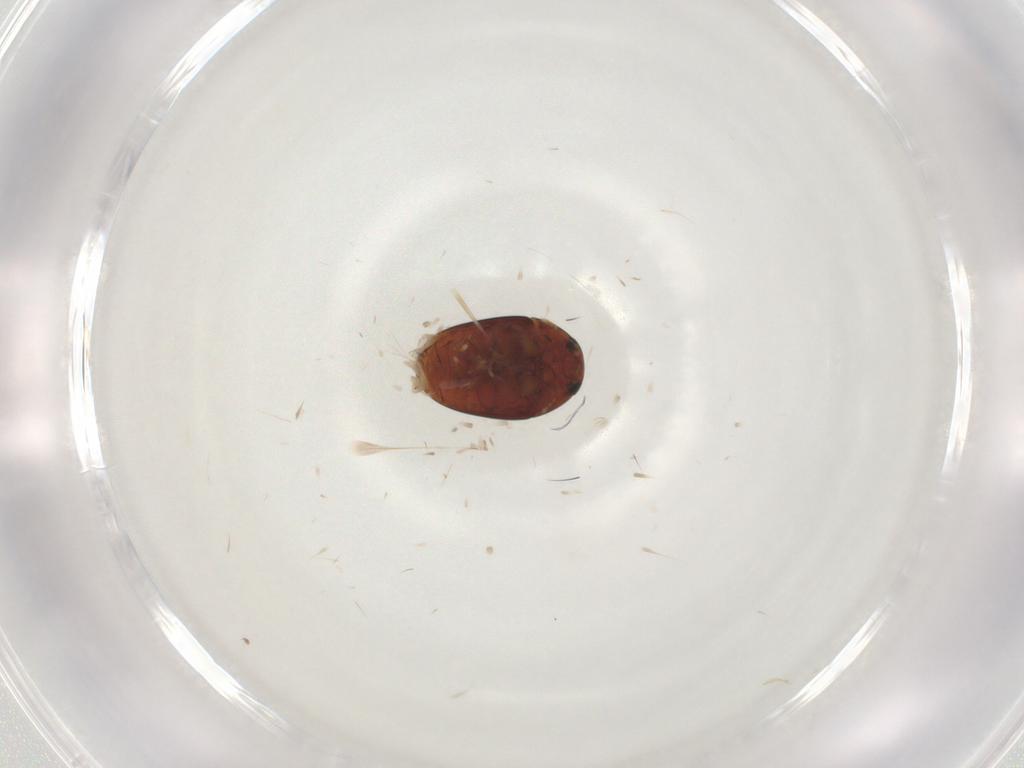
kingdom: Animalia
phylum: Arthropoda
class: Insecta
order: Coleoptera
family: Phalacridae
